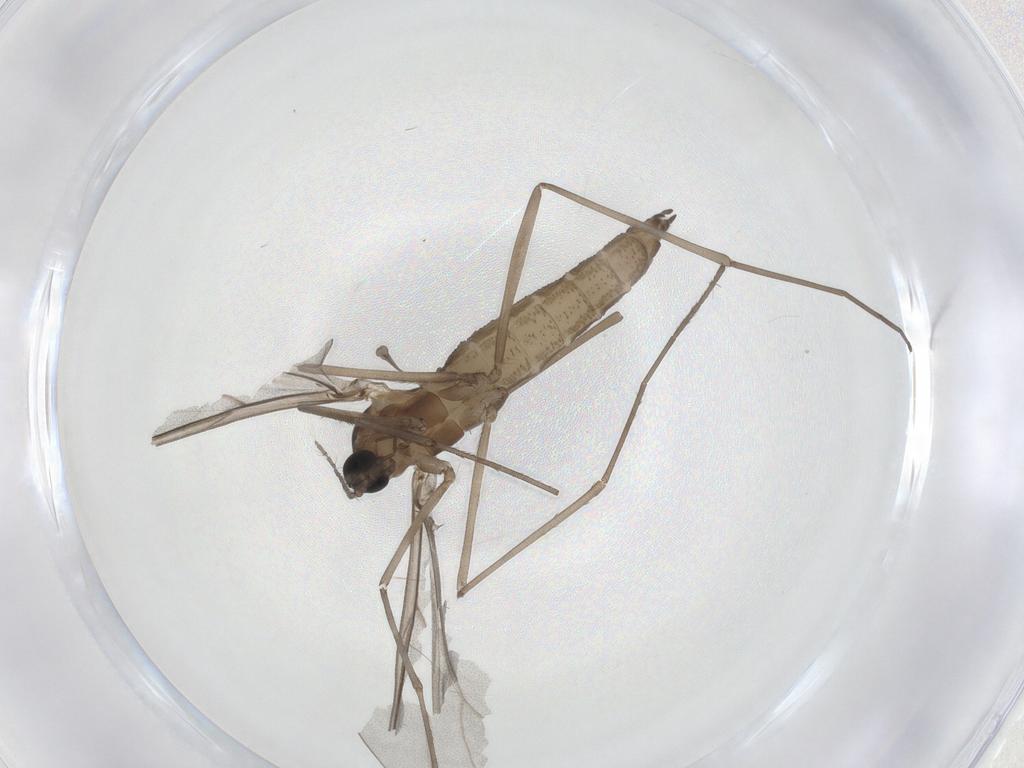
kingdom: Animalia
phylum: Arthropoda
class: Insecta
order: Diptera
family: Cecidomyiidae
